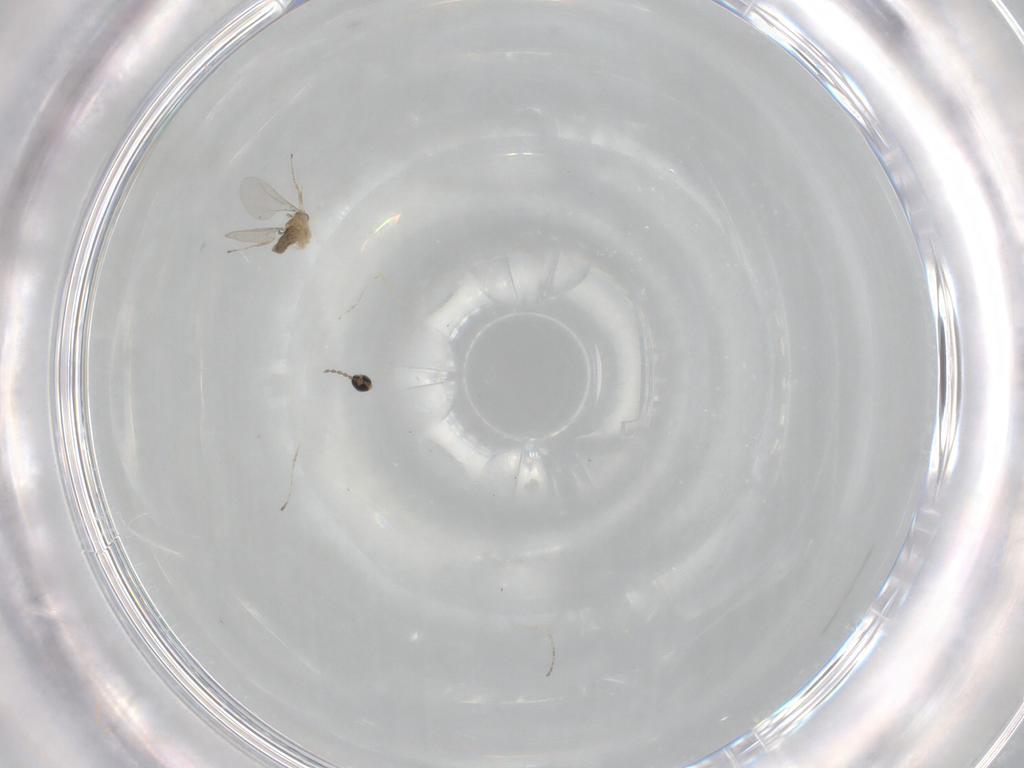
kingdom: Animalia
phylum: Arthropoda
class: Insecta
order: Diptera
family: Cecidomyiidae
